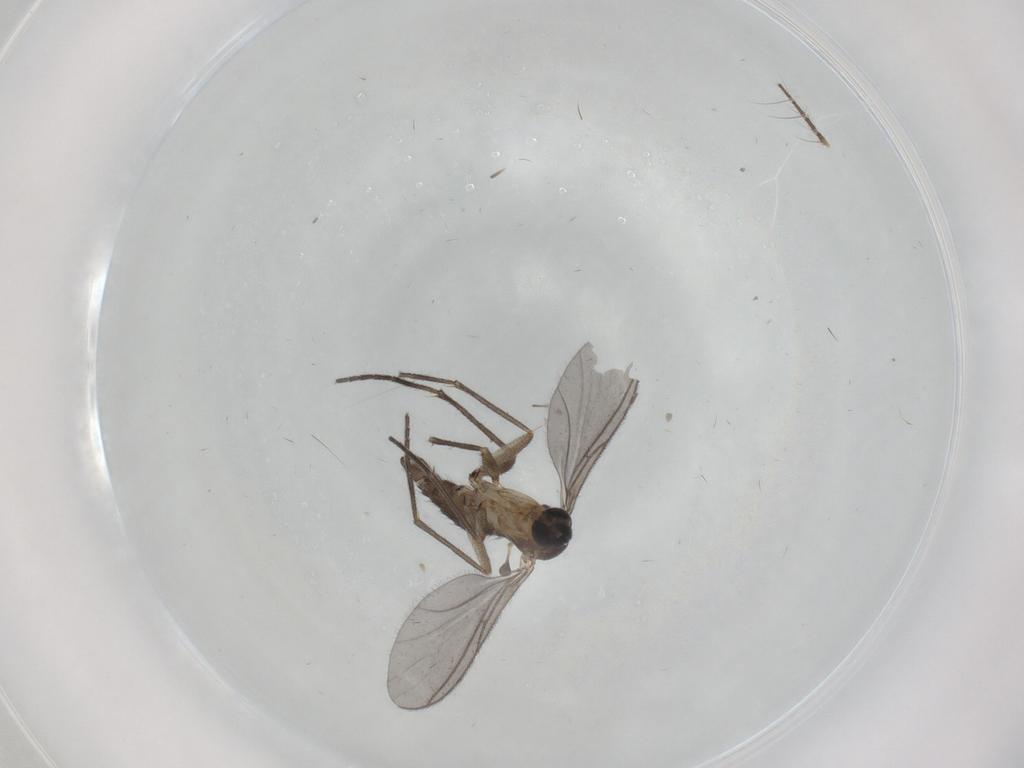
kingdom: Animalia
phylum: Arthropoda
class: Insecta
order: Diptera
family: Sciaridae
